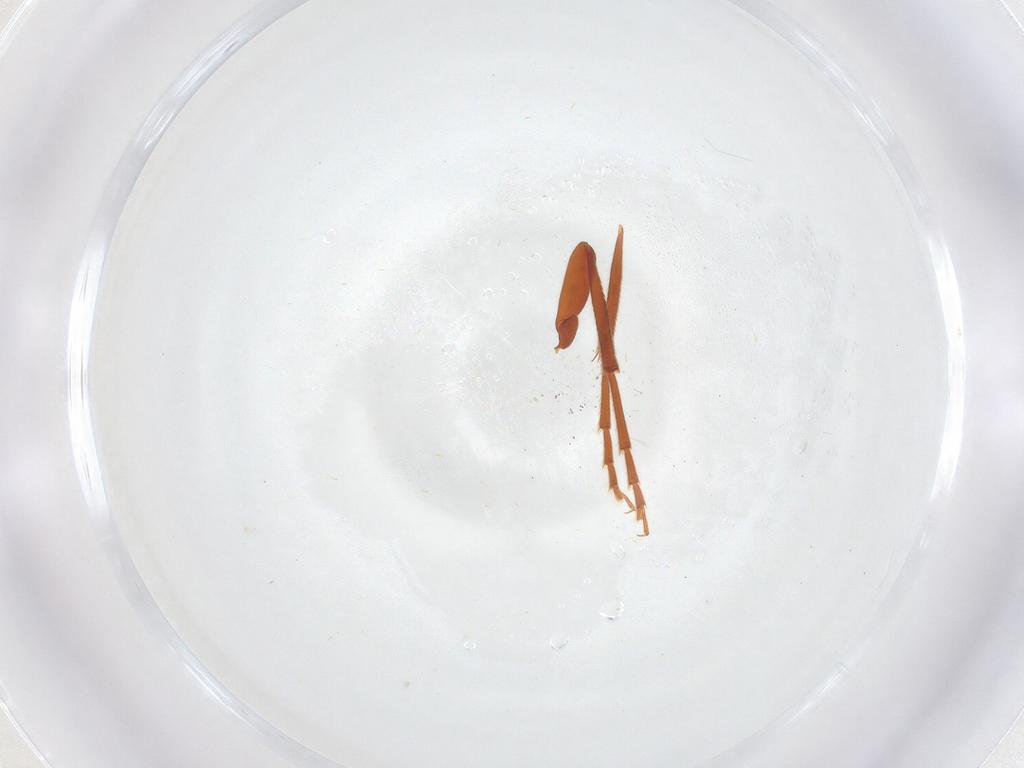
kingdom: Animalia
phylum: Arthropoda
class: Insecta
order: Coleoptera
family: Eucnemidae
